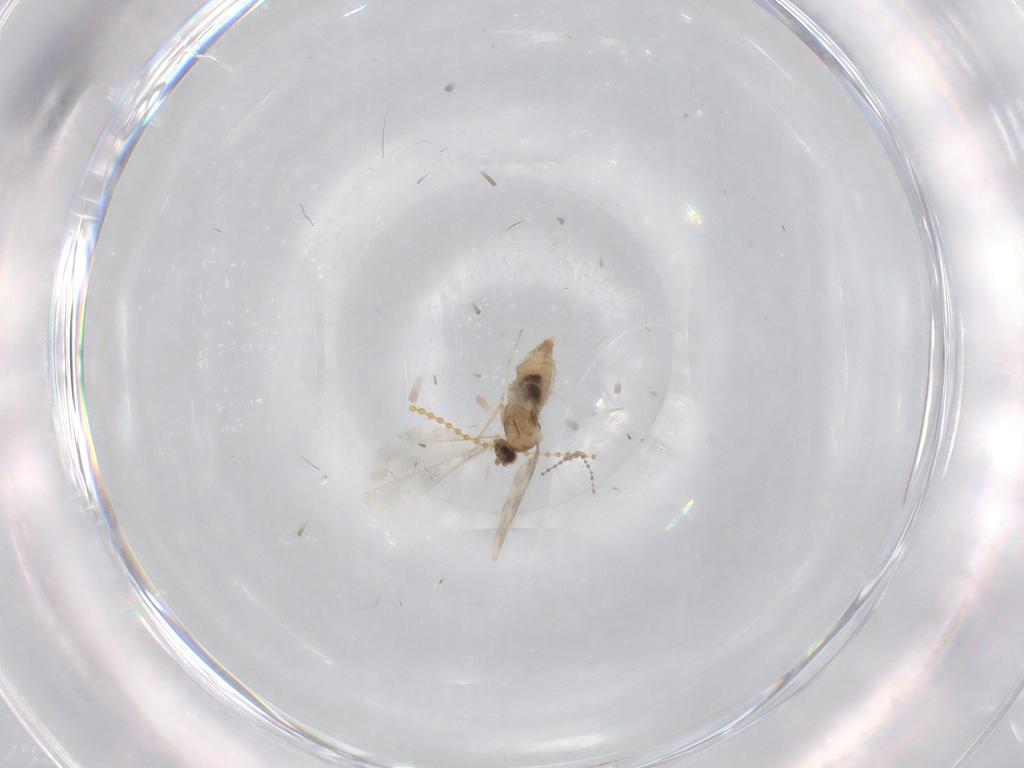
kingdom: Animalia
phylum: Arthropoda
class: Insecta
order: Diptera
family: Cecidomyiidae
